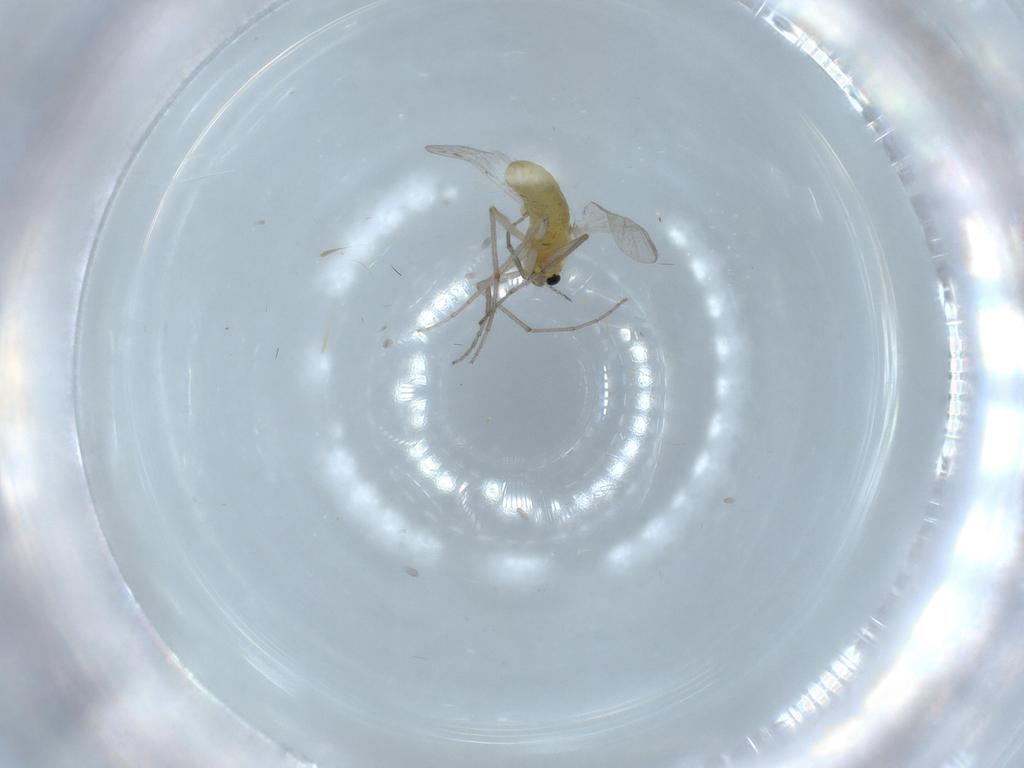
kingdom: Animalia
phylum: Arthropoda
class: Insecta
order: Diptera
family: Chironomidae
